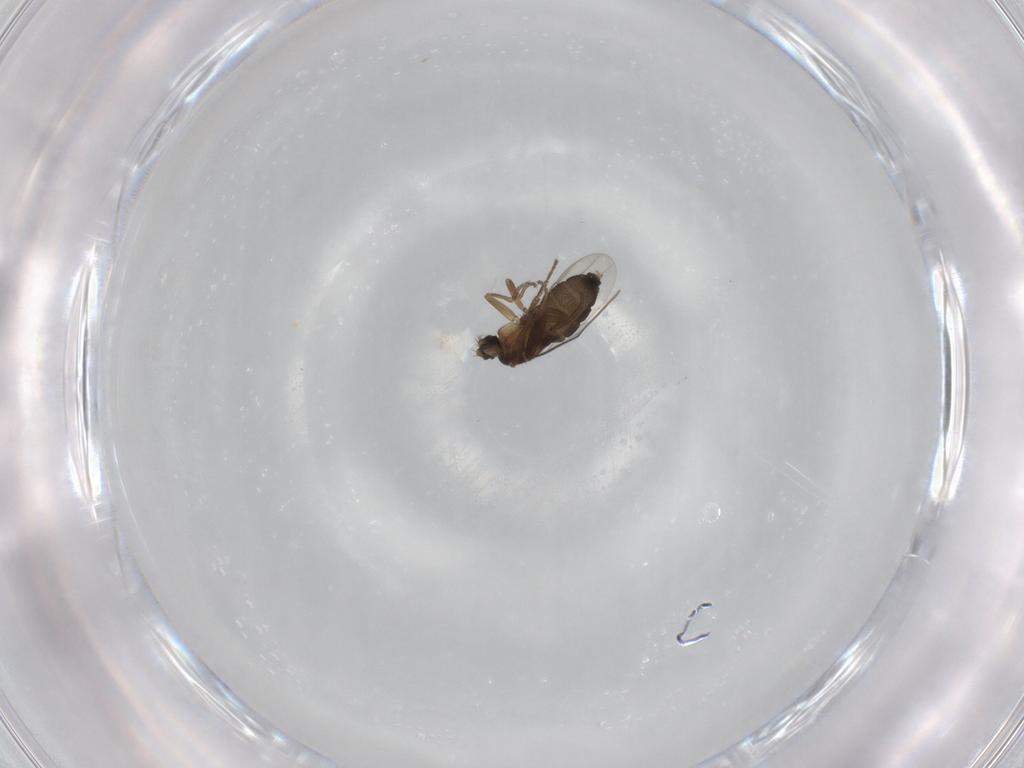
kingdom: Animalia
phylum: Arthropoda
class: Insecta
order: Diptera
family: Phoridae
